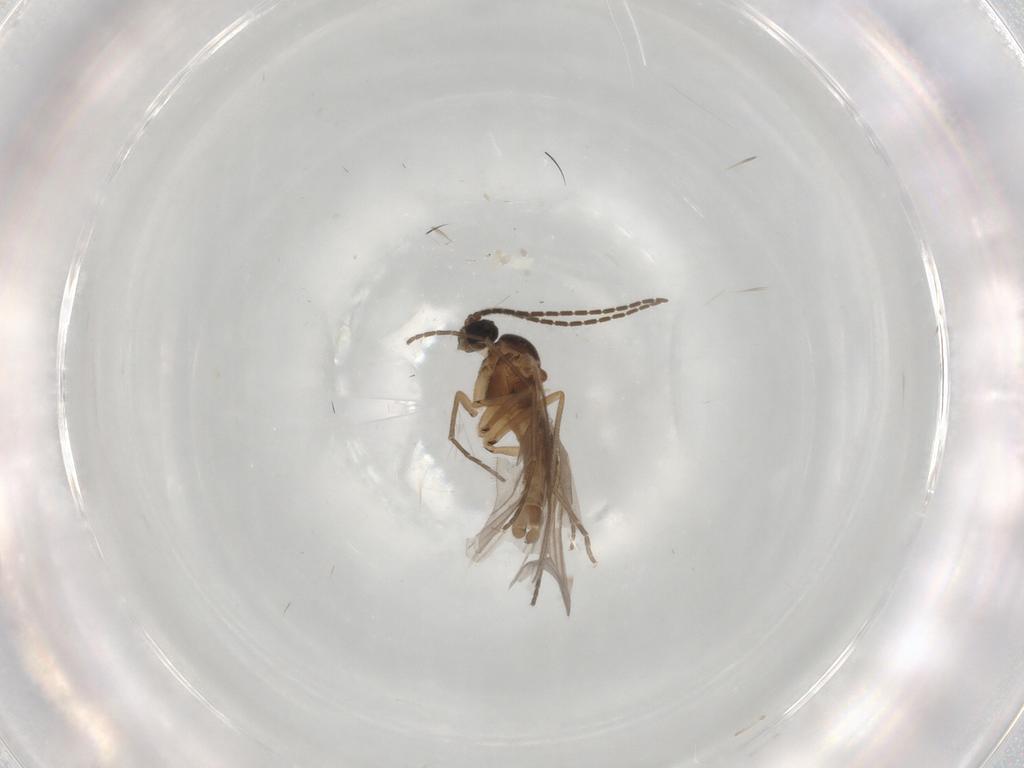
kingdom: Animalia
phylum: Arthropoda
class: Insecta
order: Diptera
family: Sciaridae
